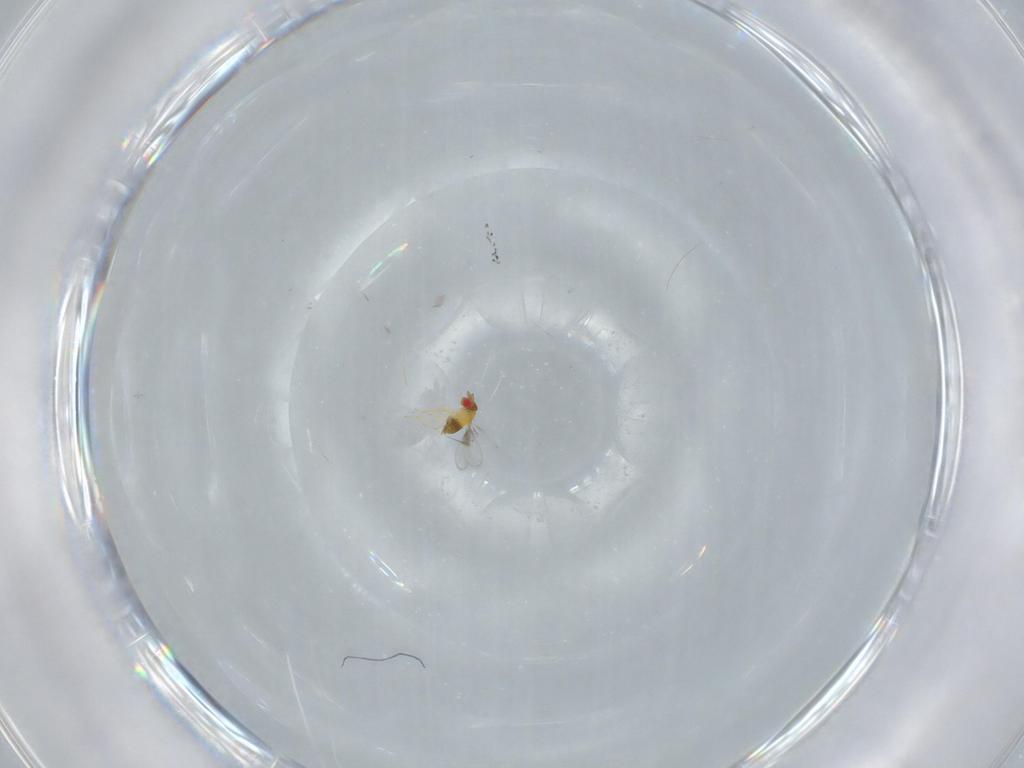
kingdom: Animalia
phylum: Arthropoda
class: Insecta
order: Hymenoptera
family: Trichogrammatidae
